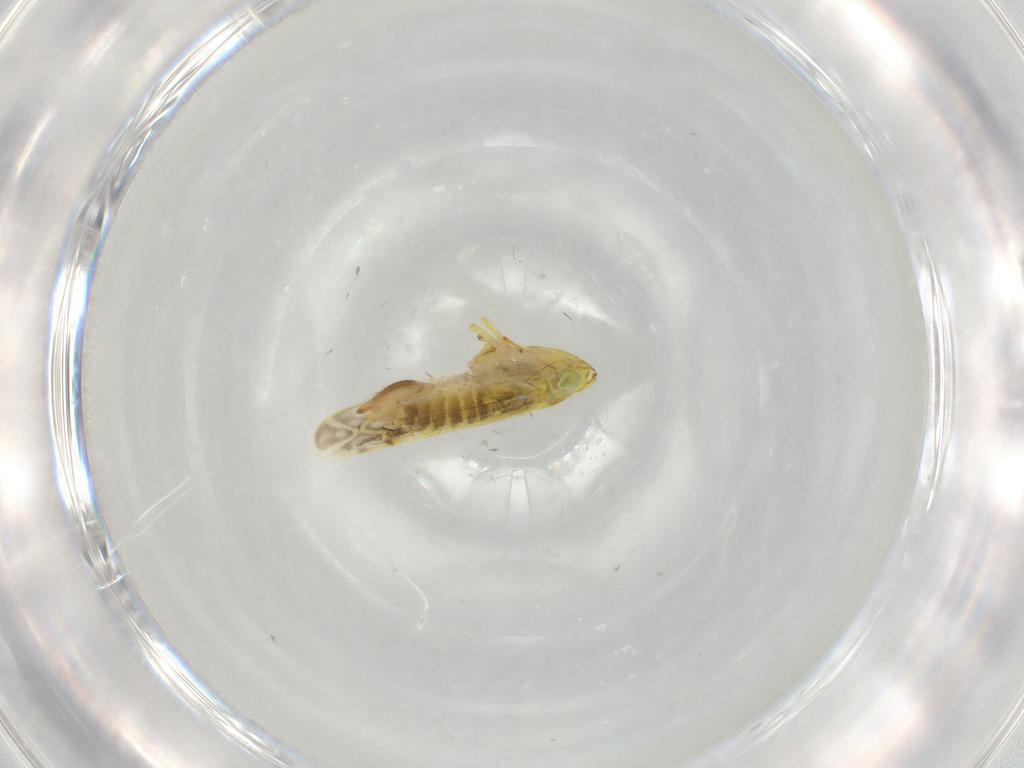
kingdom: Animalia
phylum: Arthropoda
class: Insecta
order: Hemiptera
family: Cicadellidae
